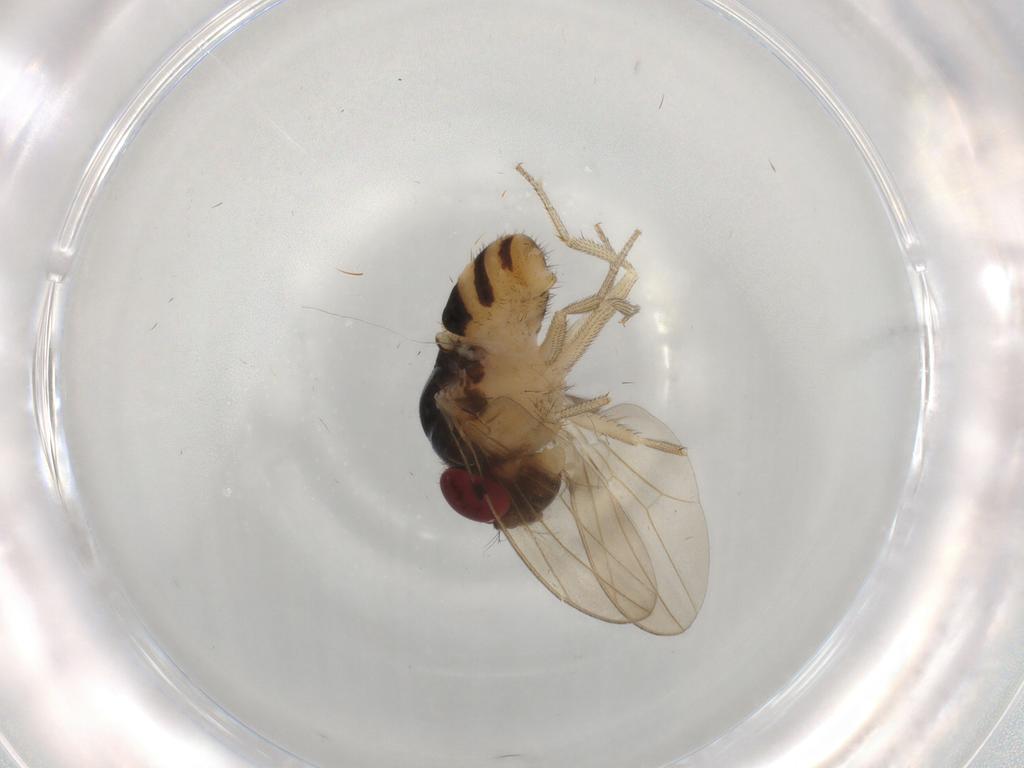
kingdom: Animalia
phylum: Arthropoda
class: Insecta
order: Diptera
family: Drosophilidae
